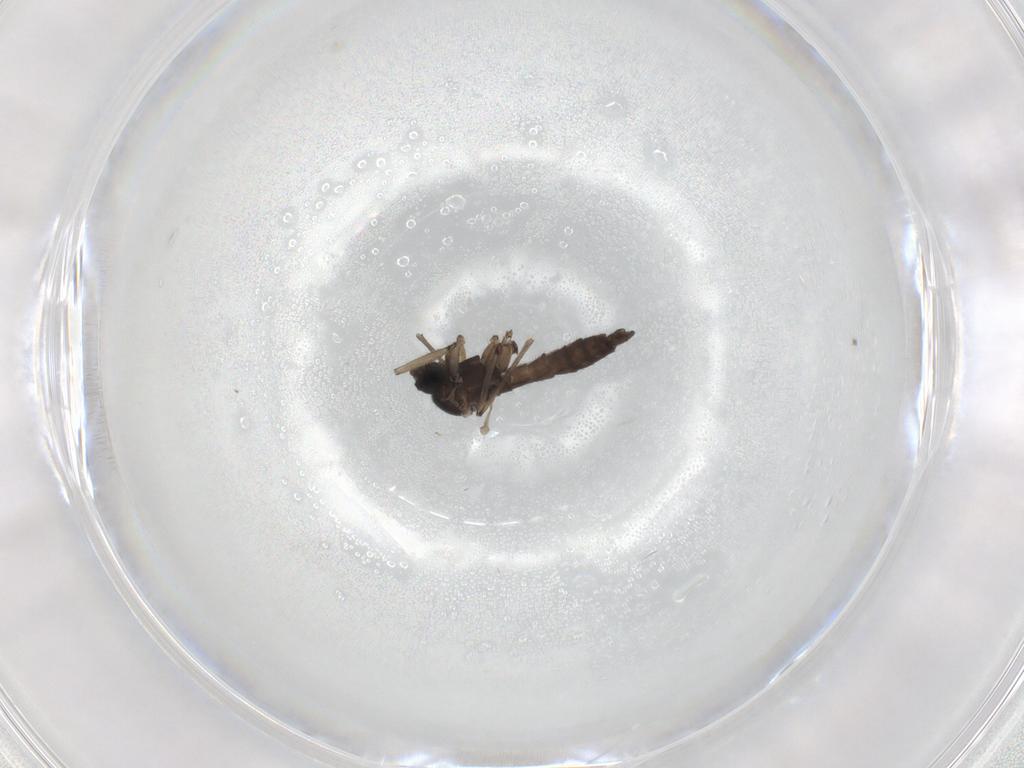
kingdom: Animalia
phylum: Arthropoda
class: Insecta
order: Diptera
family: Sciaridae
